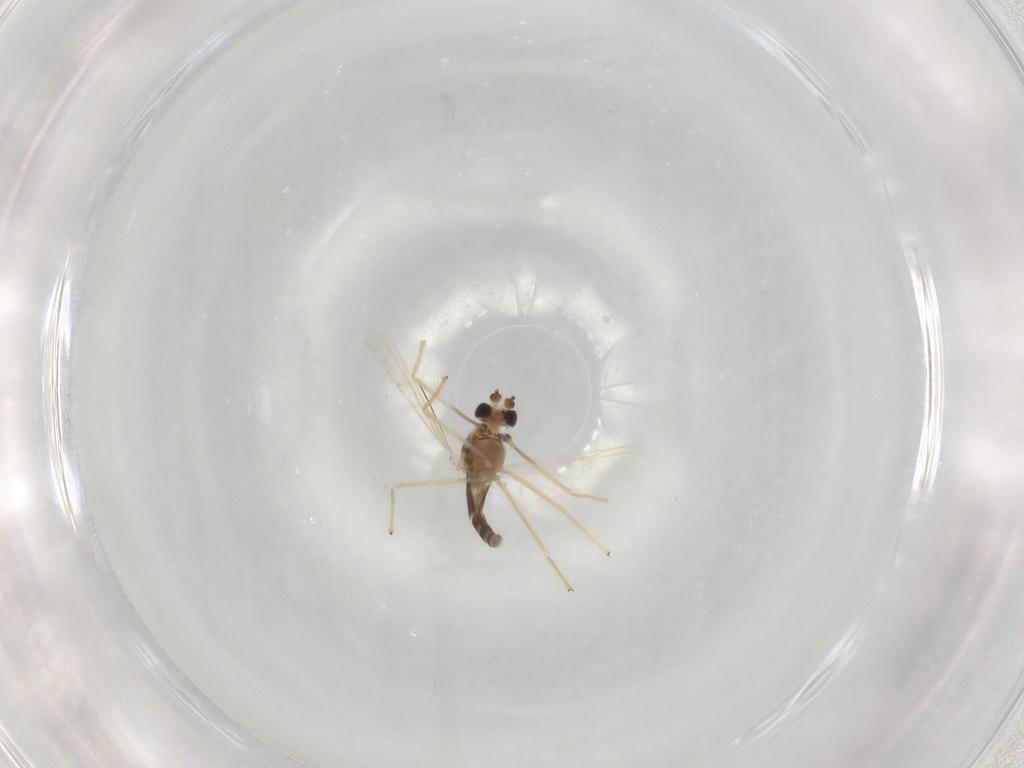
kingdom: Animalia
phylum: Arthropoda
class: Insecta
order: Diptera
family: Chironomidae
